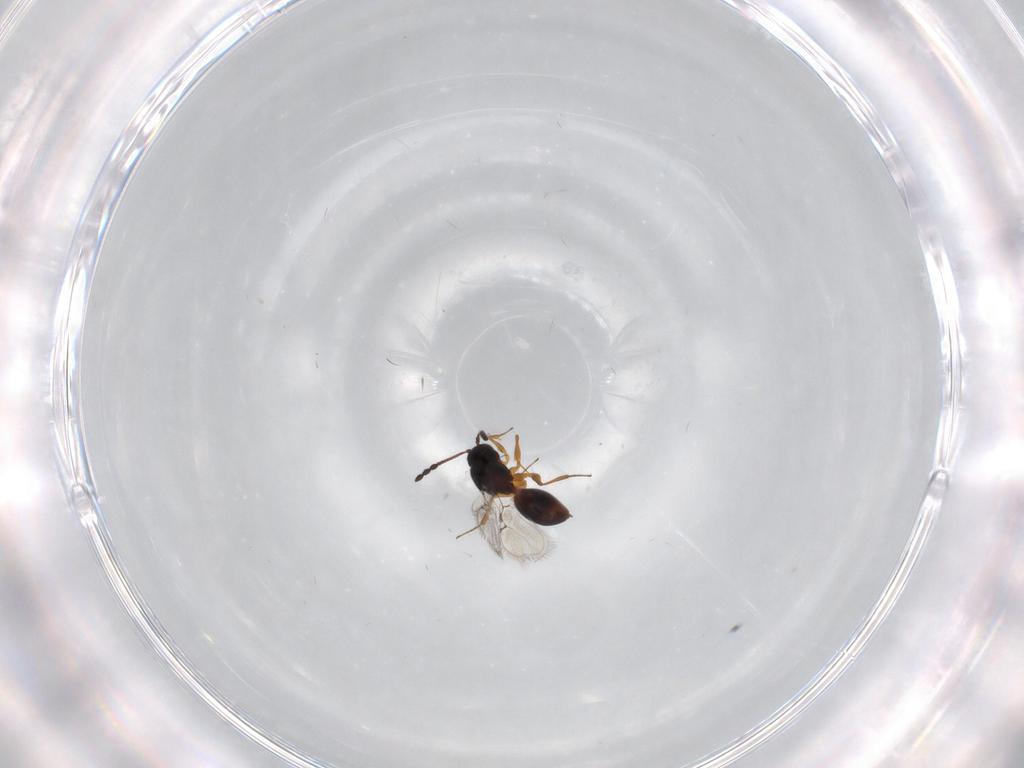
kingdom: Animalia
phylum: Arthropoda
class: Insecta
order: Hymenoptera
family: Figitidae
